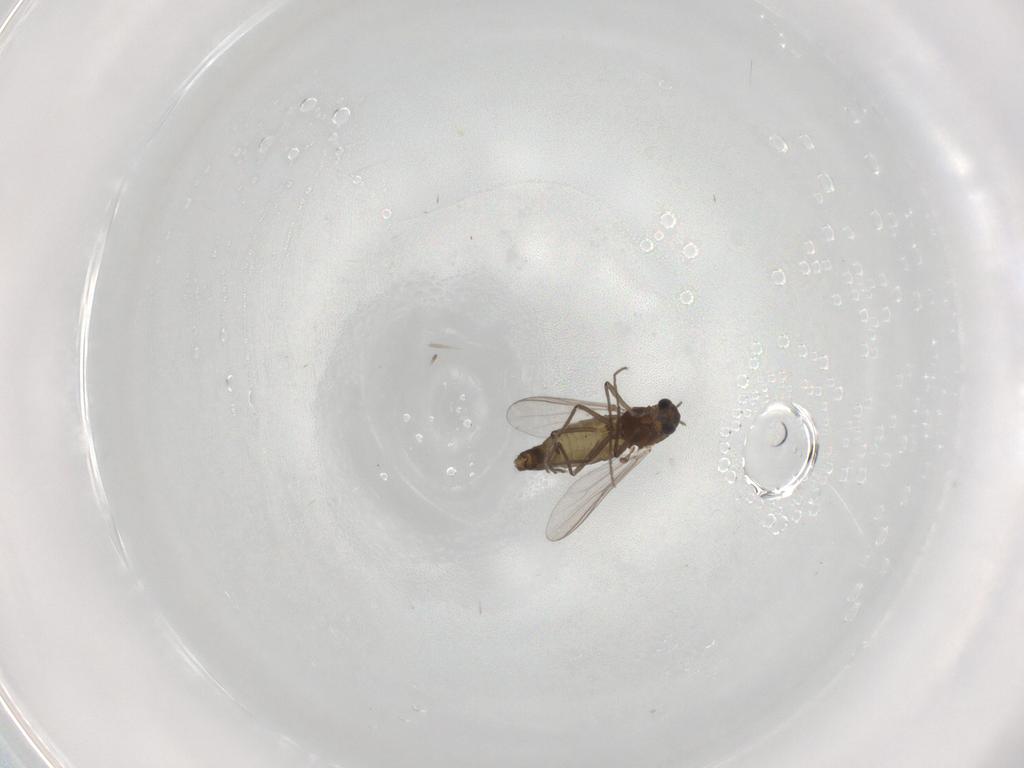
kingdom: Animalia
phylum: Arthropoda
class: Insecta
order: Diptera
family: Chironomidae
